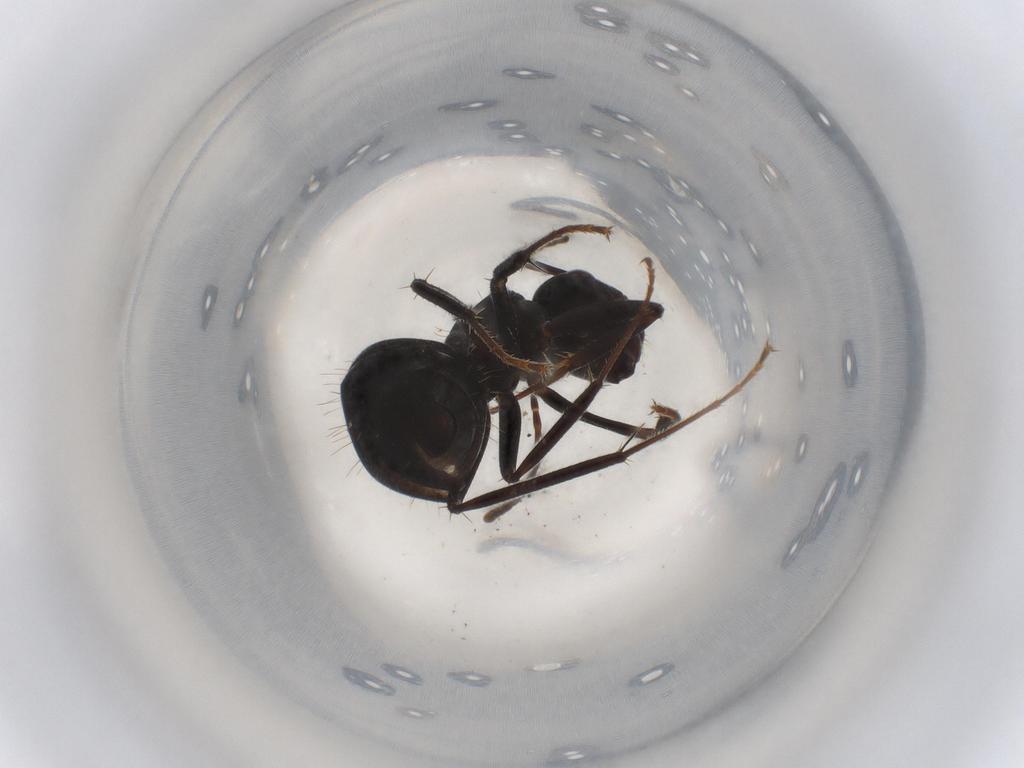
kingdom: Animalia
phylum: Arthropoda
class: Insecta
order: Hymenoptera
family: Formicidae
